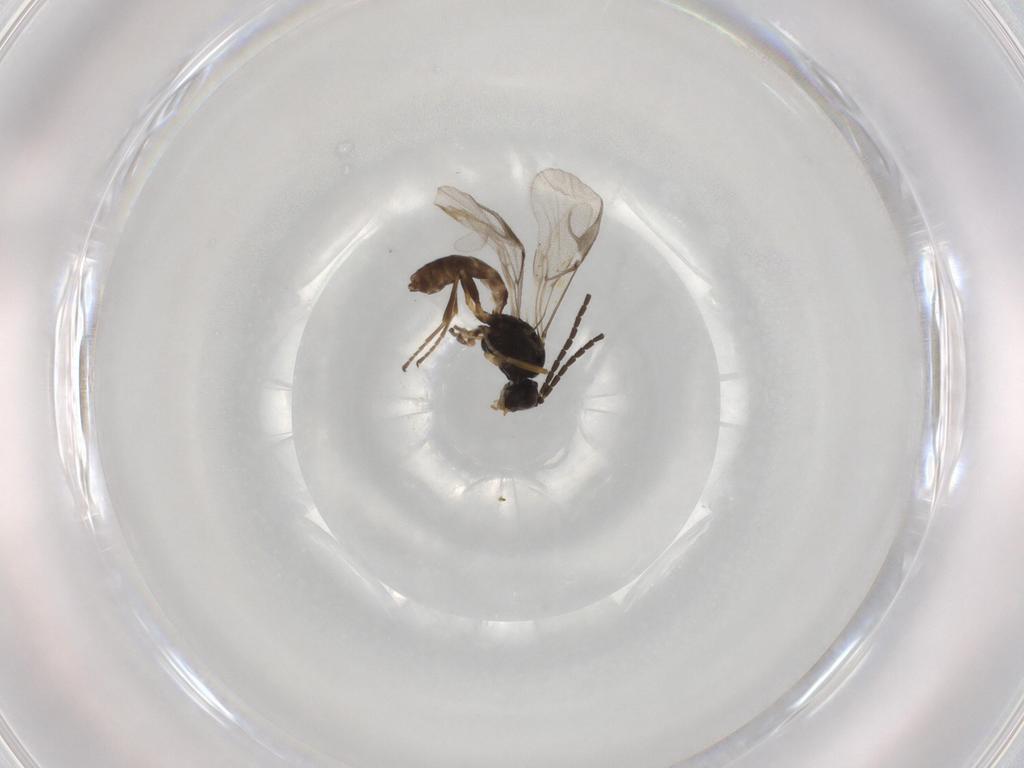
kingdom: Animalia
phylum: Arthropoda
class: Insecta
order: Hymenoptera
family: Braconidae
